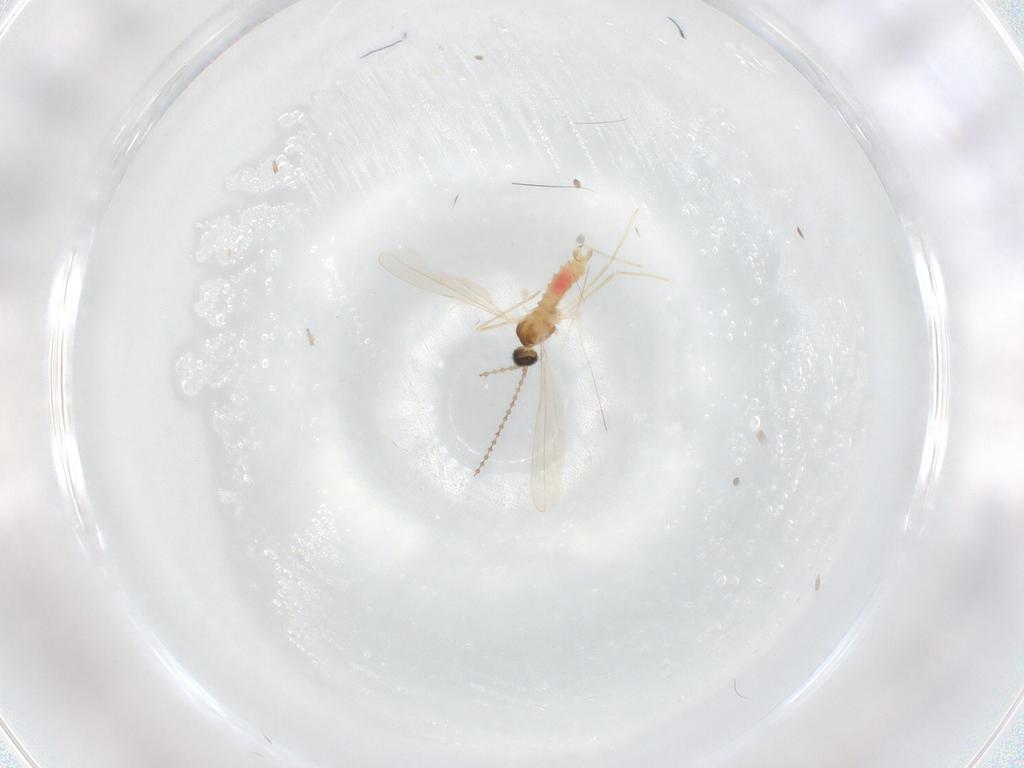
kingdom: Animalia
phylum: Arthropoda
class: Insecta
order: Diptera
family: Cecidomyiidae
